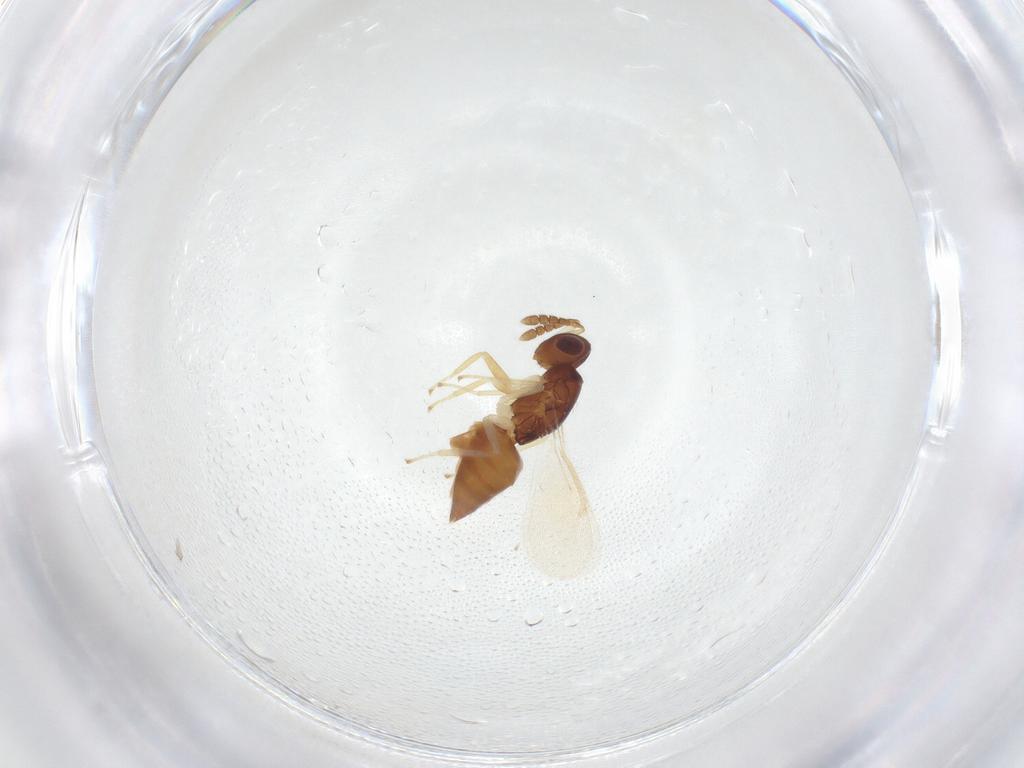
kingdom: Animalia
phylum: Arthropoda
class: Insecta
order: Hymenoptera
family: Eulophidae
